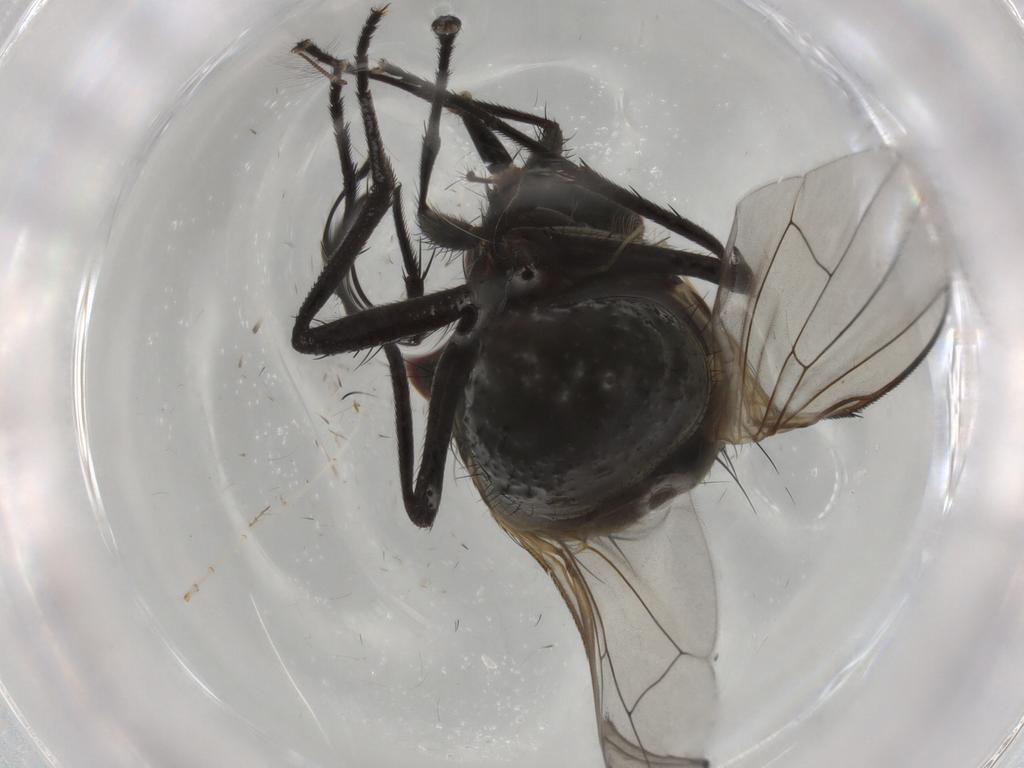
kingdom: Animalia
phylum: Arthropoda
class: Insecta
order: Diptera
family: Muscidae
